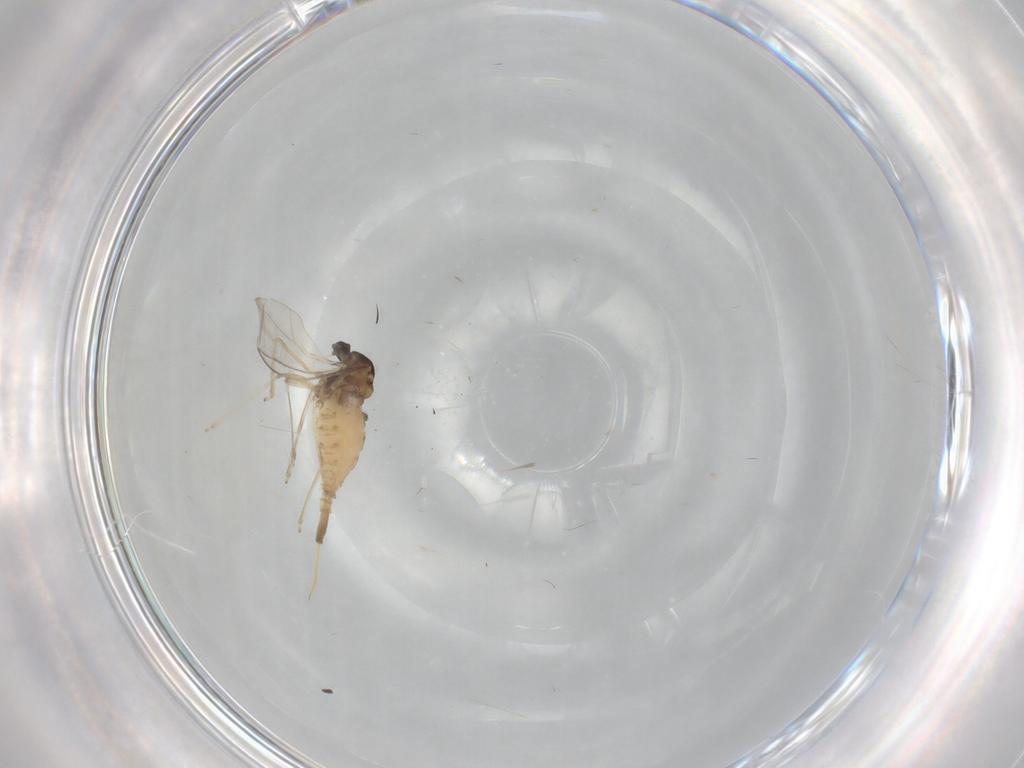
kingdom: Animalia
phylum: Arthropoda
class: Insecta
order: Diptera
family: Cecidomyiidae
